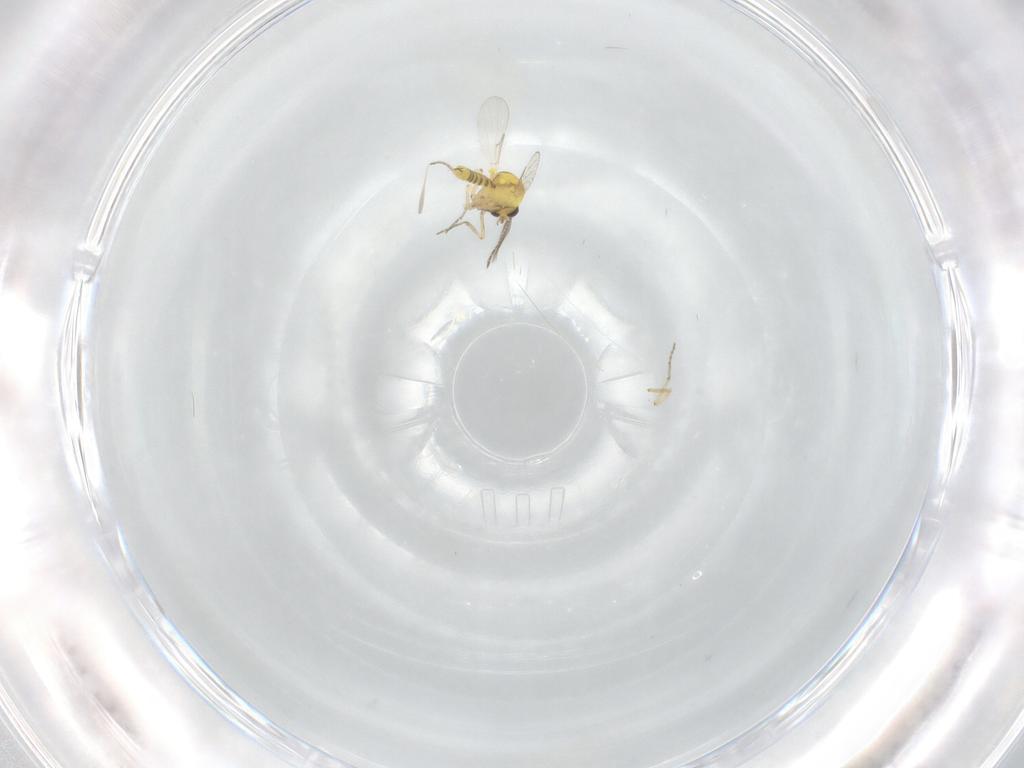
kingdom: Animalia
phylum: Arthropoda
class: Insecta
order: Diptera
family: Ceratopogonidae
